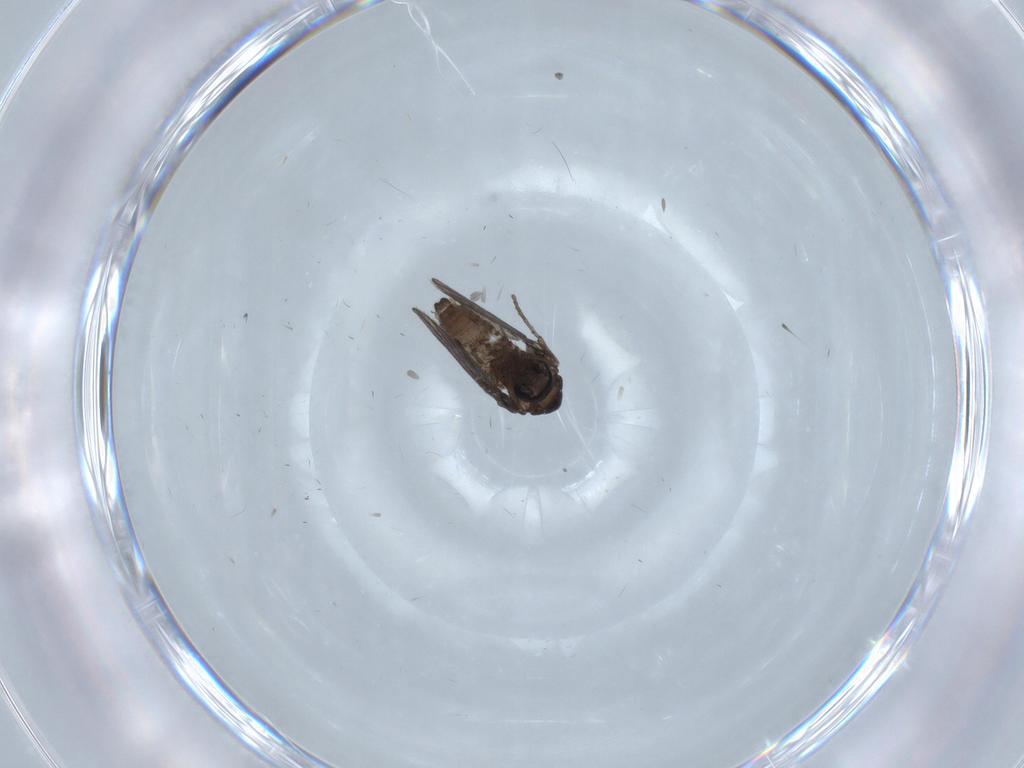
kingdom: Animalia
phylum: Arthropoda
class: Insecta
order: Diptera
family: Psychodidae
